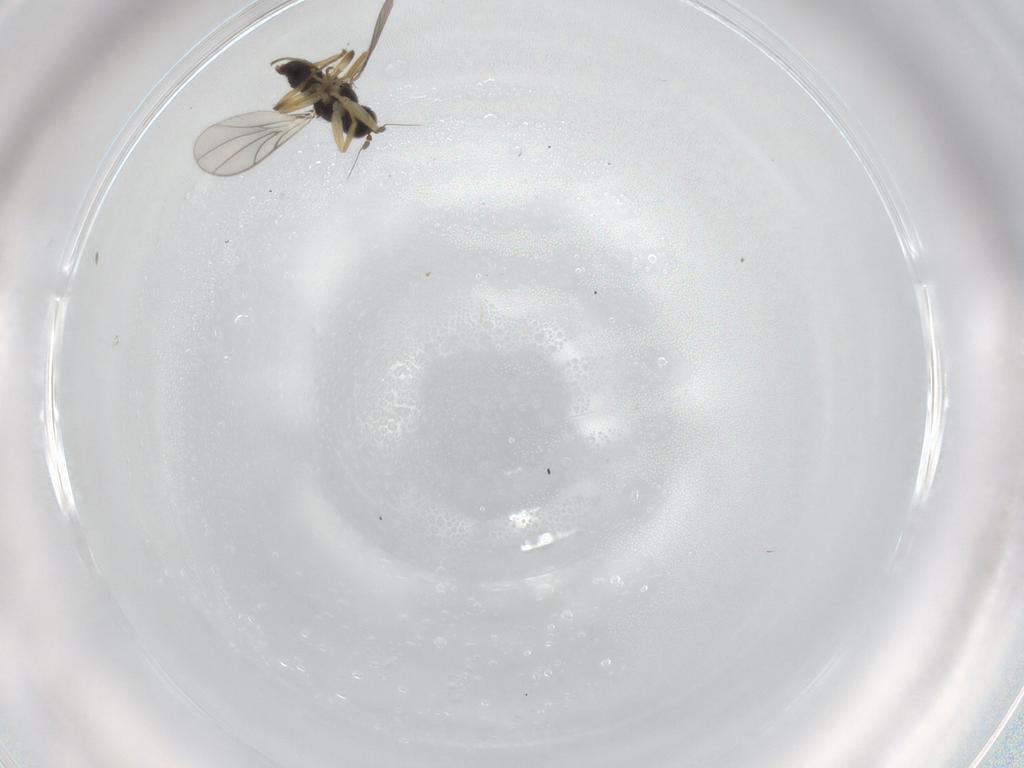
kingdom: Animalia
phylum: Arthropoda
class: Insecta
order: Diptera
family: Hybotidae
